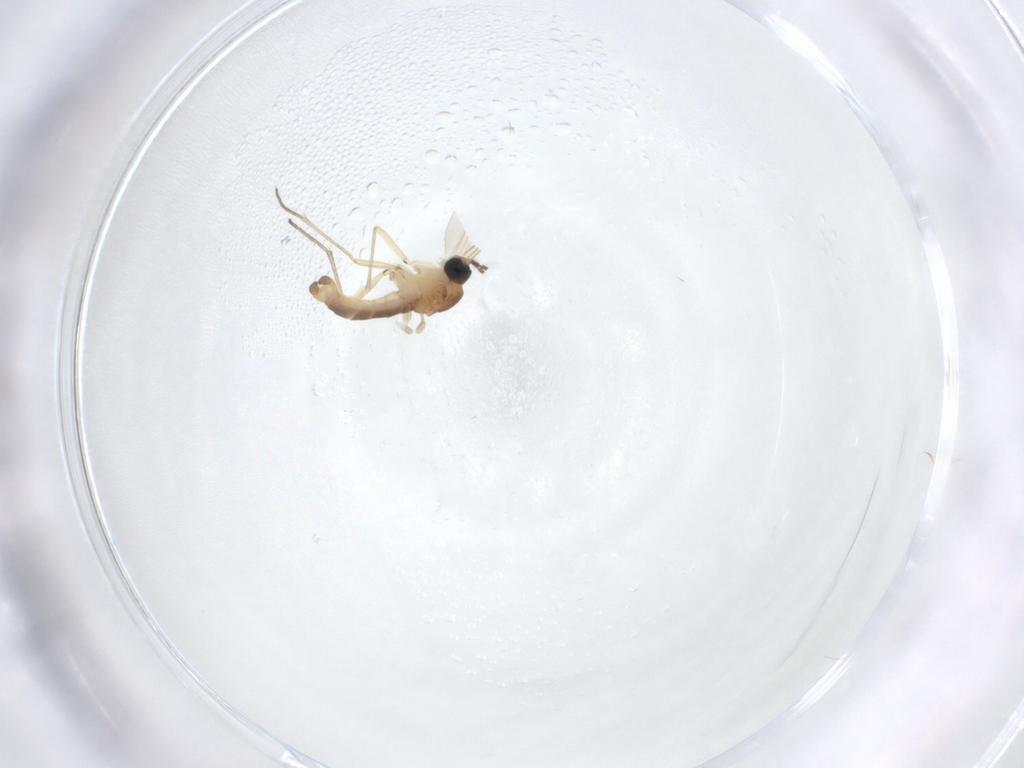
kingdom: Animalia
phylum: Arthropoda
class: Insecta
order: Diptera
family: Sciaridae
